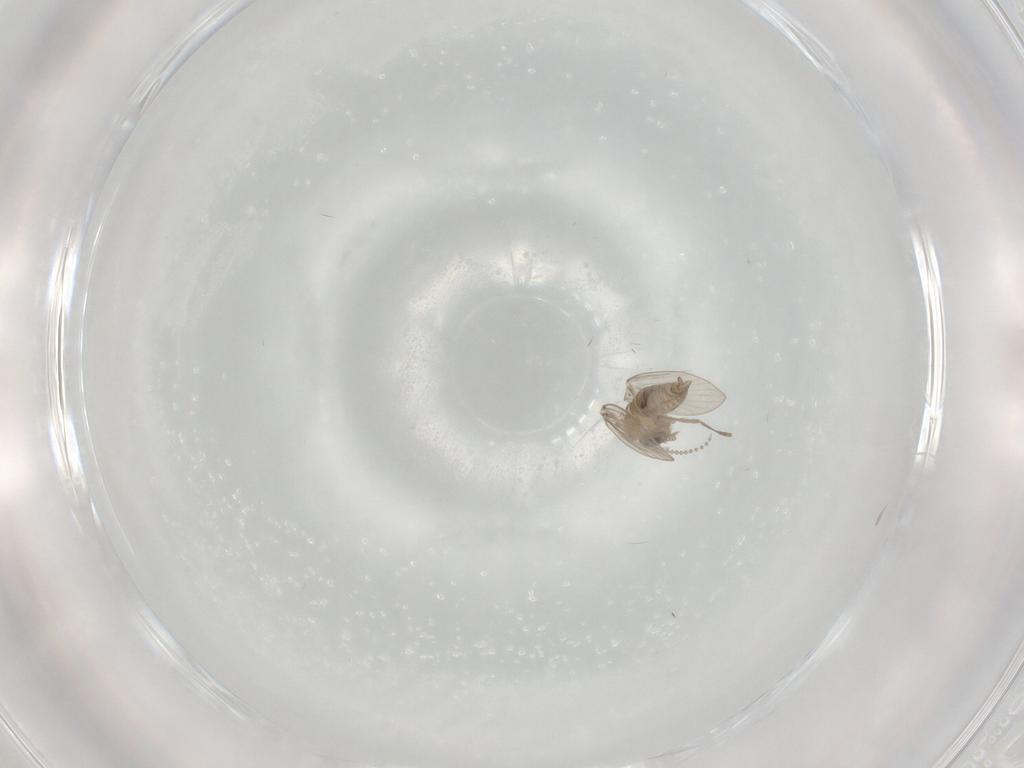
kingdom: Animalia
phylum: Arthropoda
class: Insecta
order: Diptera
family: Psychodidae
